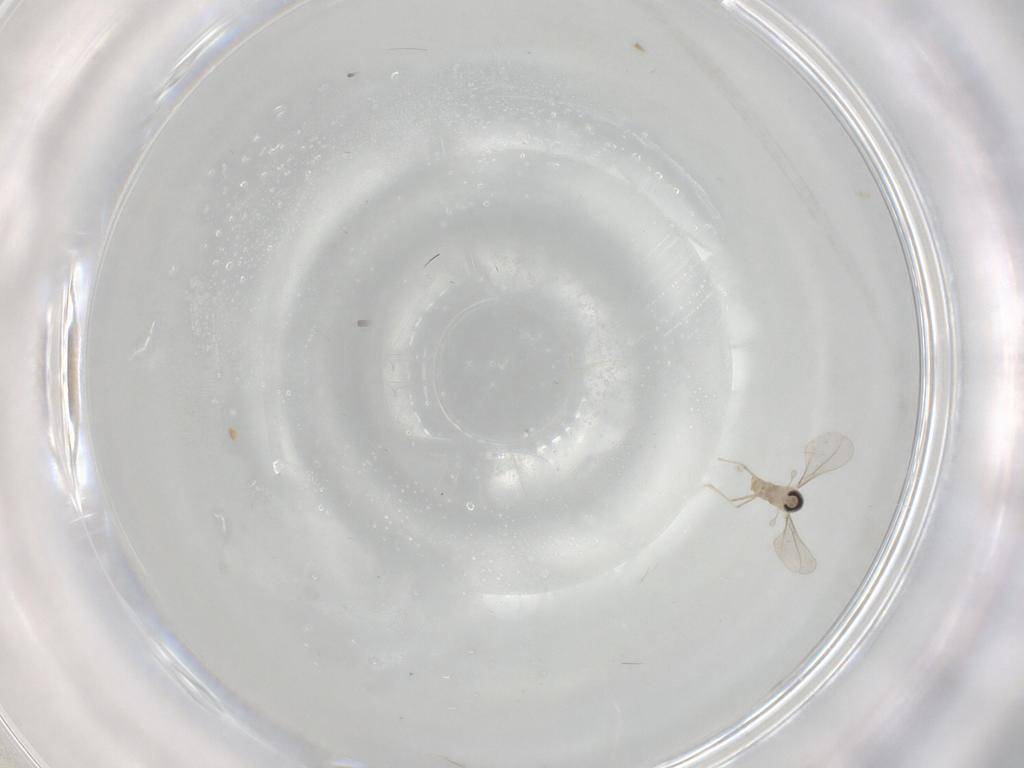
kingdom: Animalia
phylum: Arthropoda
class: Insecta
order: Diptera
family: Cecidomyiidae
